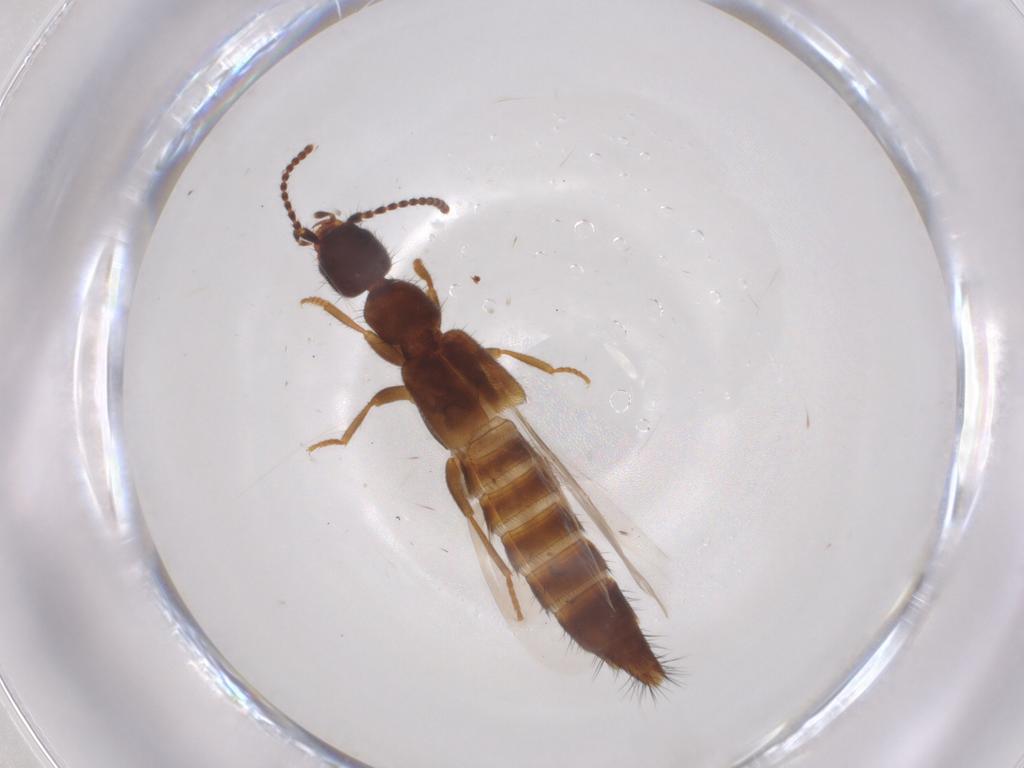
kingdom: Animalia
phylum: Arthropoda
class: Insecta
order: Coleoptera
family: Staphylinidae
